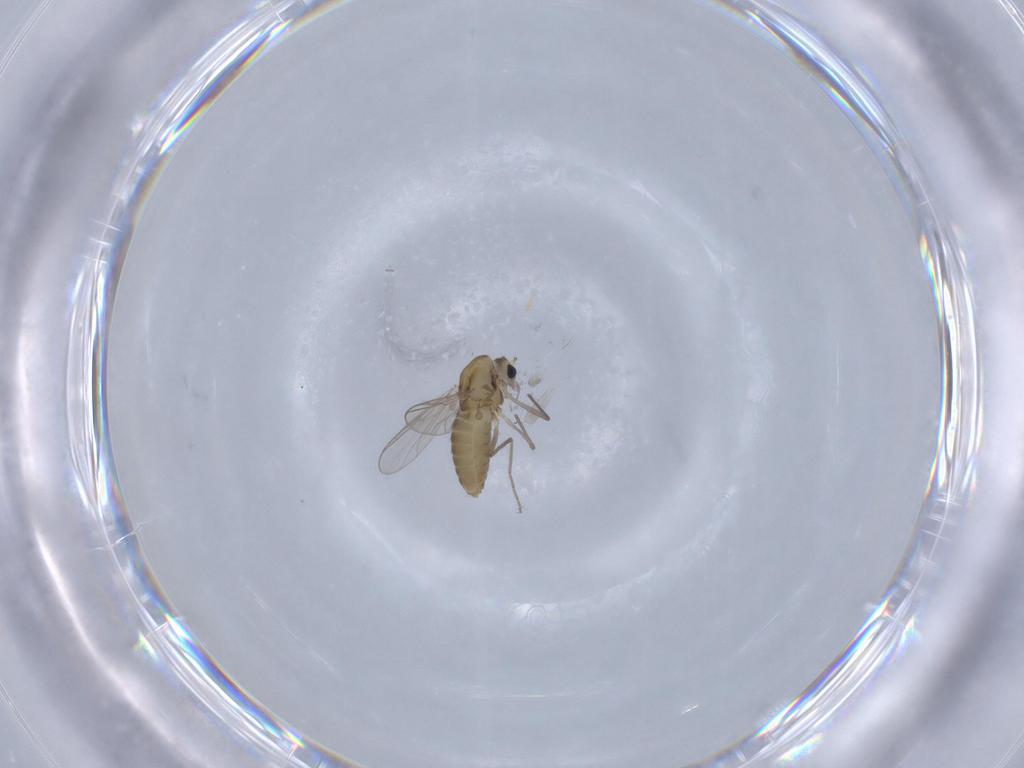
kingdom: Animalia
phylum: Arthropoda
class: Insecta
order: Diptera
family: Chironomidae
